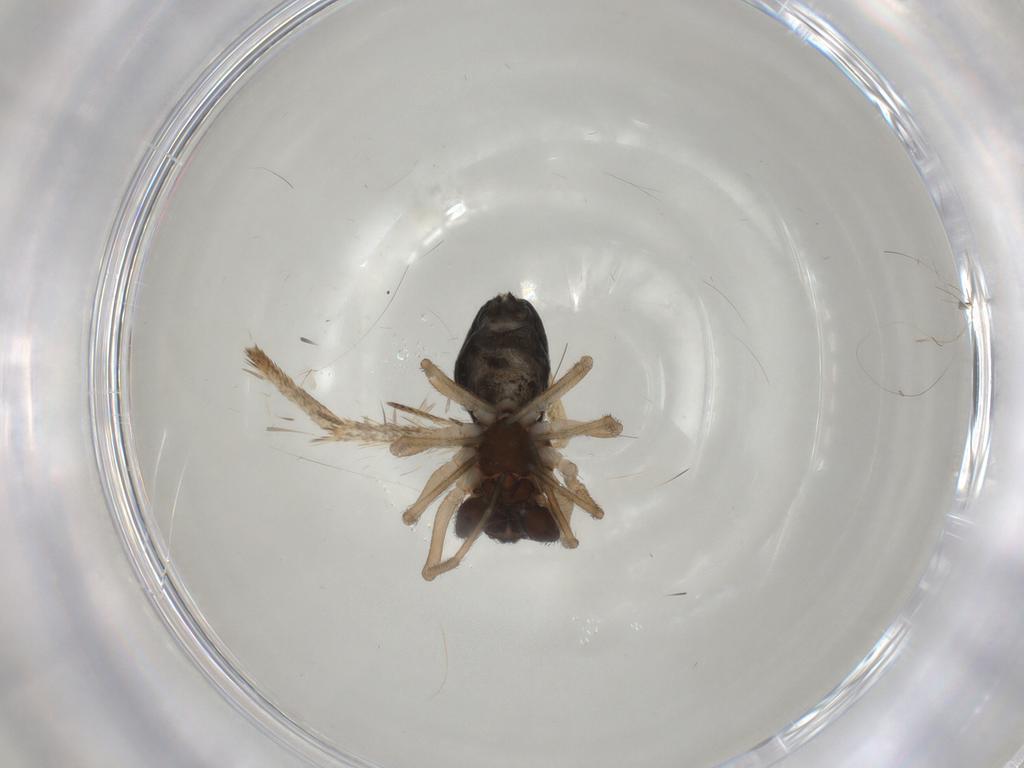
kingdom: Animalia
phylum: Arthropoda
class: Arachnida
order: Araneae
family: Dictynidae
